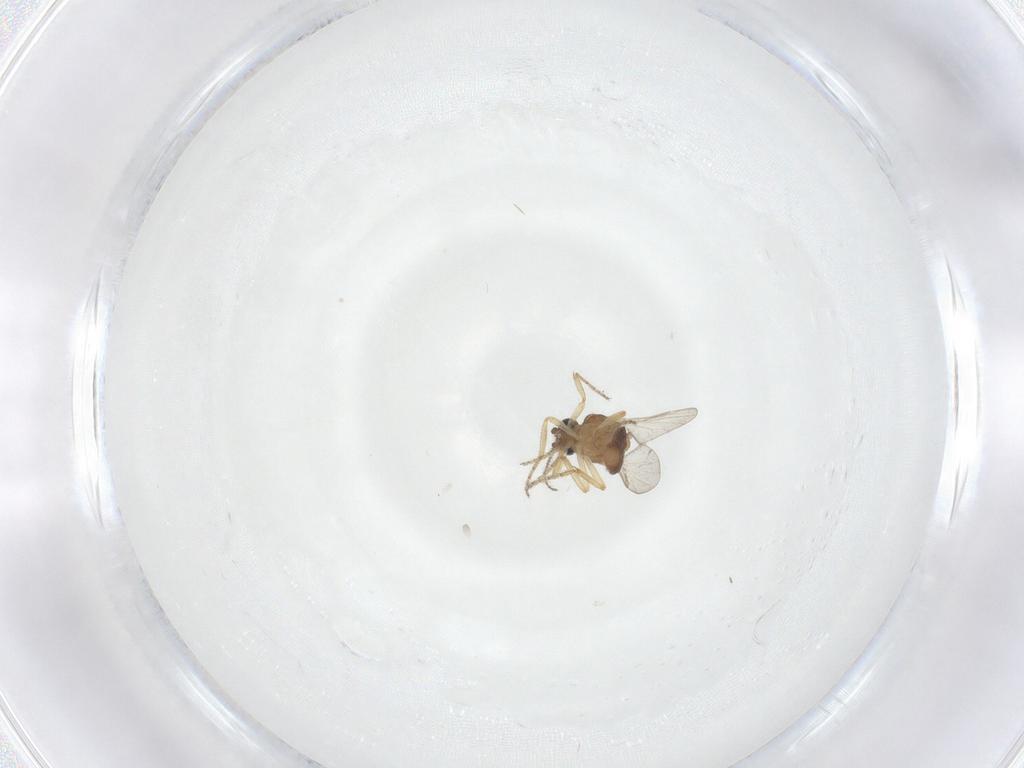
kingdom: Animalia
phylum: Arthropoda
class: Insecta
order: Diptera
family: Ceratopogonidae
